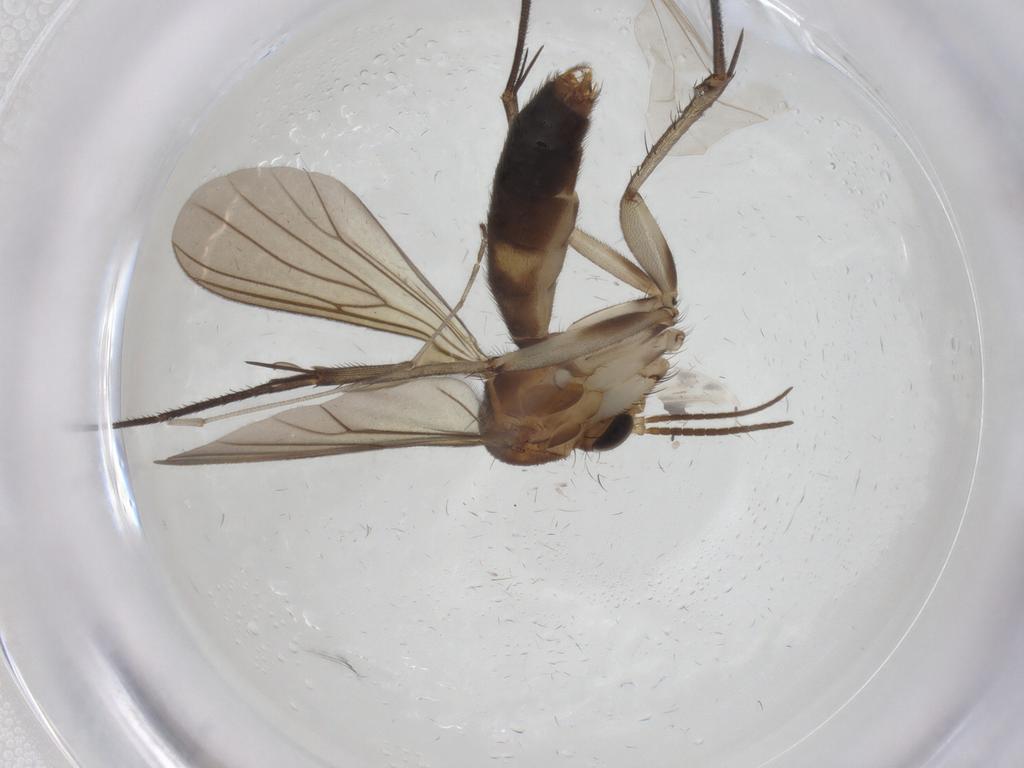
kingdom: Animalia
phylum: Arthropoda
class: Insecta
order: Diptera
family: Mycetophilidae
